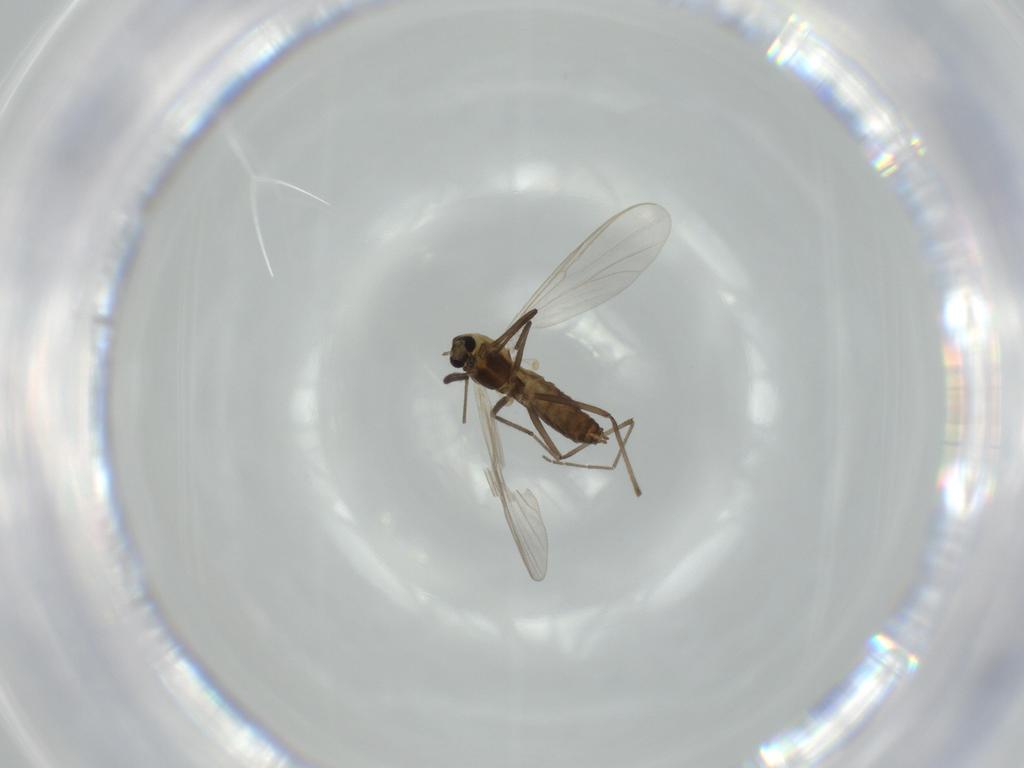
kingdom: Animalia
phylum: Arthropoda
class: Insecta
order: Diptera
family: Chironomidae
